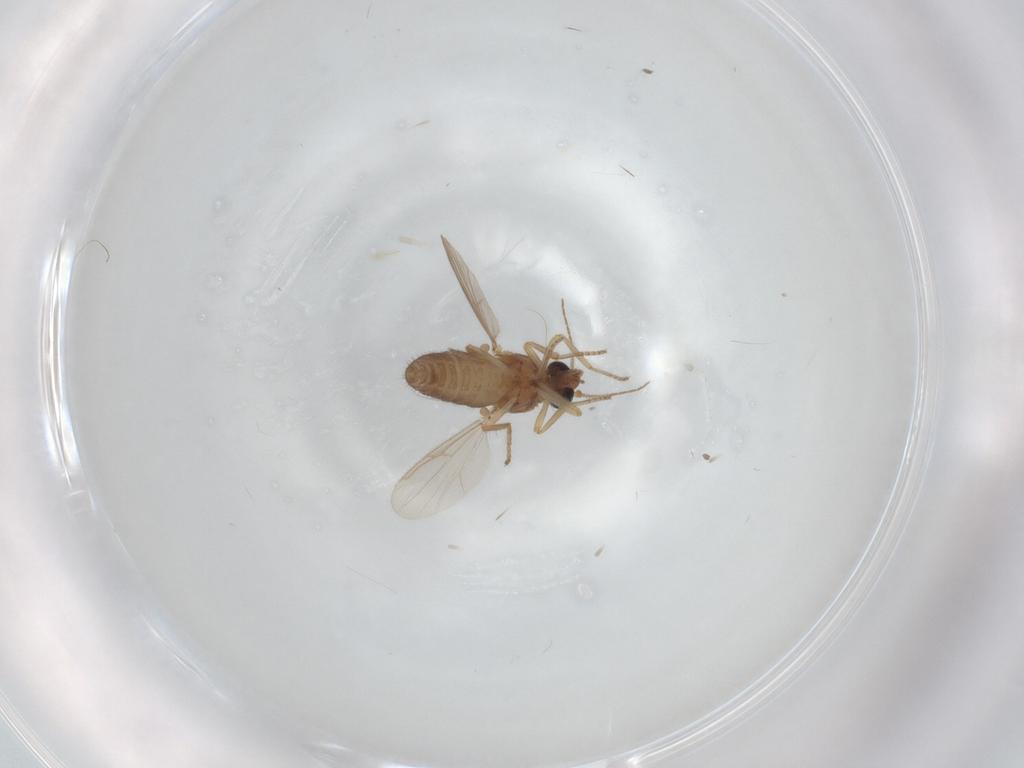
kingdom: Animalia
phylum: Arthropoda
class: Insecta
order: Diptera
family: Ceratopogonidae
